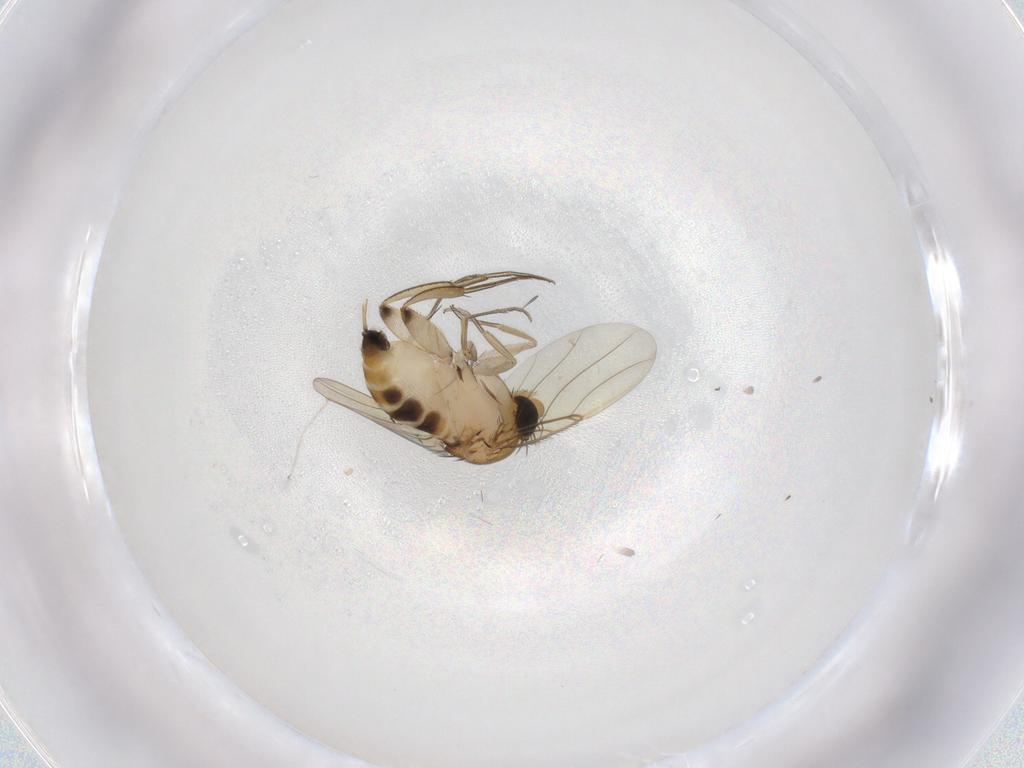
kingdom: Animalia
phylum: Arthropoda
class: Insecta
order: Diptera
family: Phoridae
